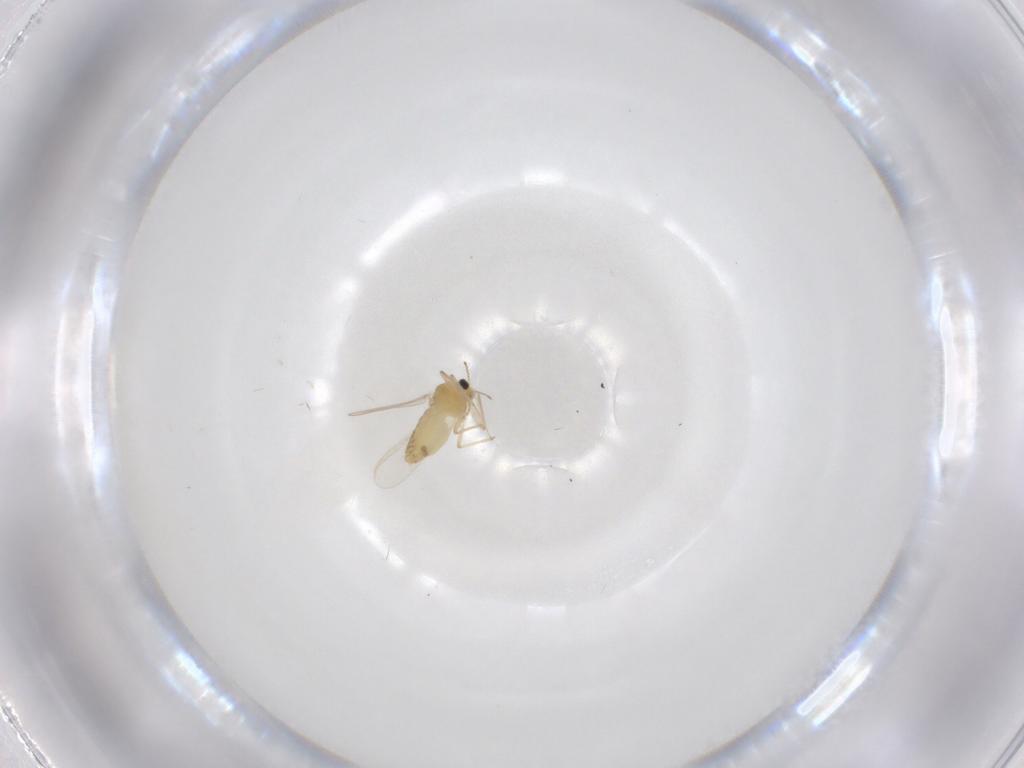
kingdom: Animalia
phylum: Arthropoda
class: Insecta
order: Diptera
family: Chironomidae
